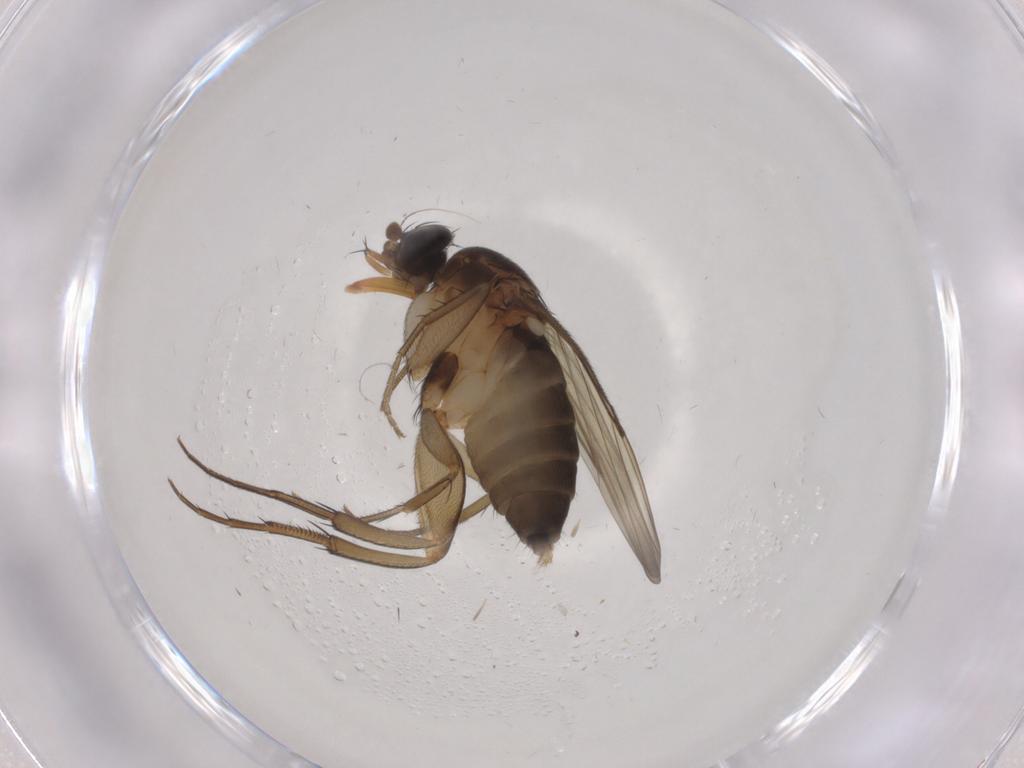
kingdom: Animalia
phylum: Arthropoda
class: Insecta
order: Diptera
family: Phoridae
